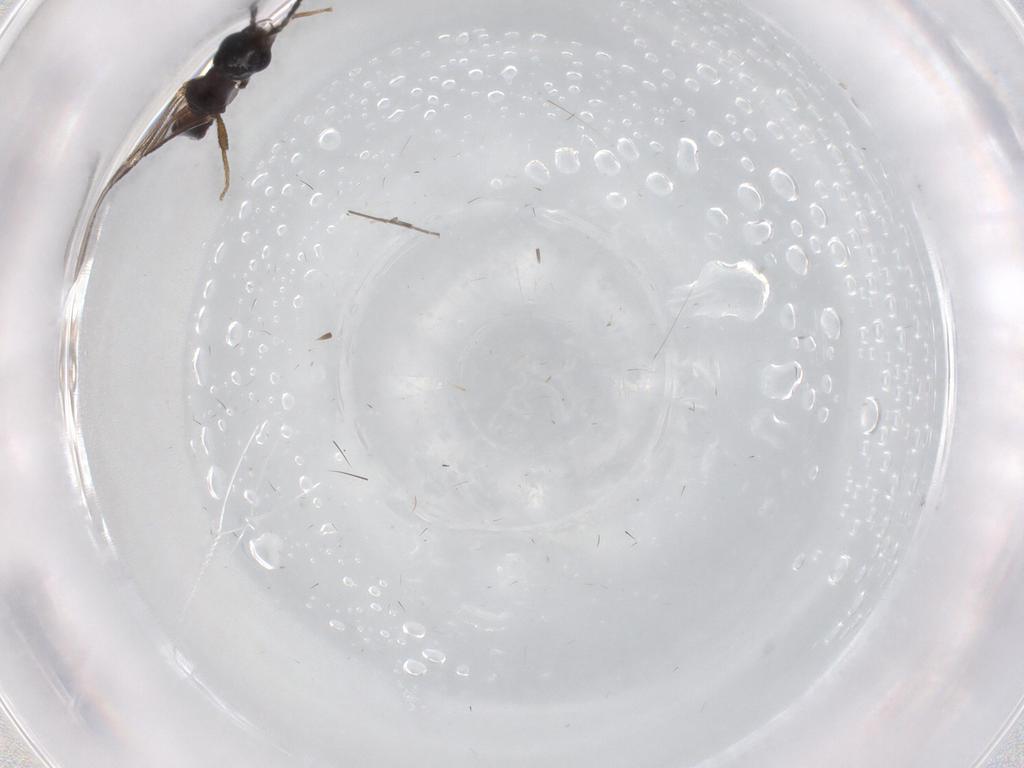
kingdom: Animalia
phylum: Arthropoda
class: Insecta
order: Hymenoptera
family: Bethylidae
